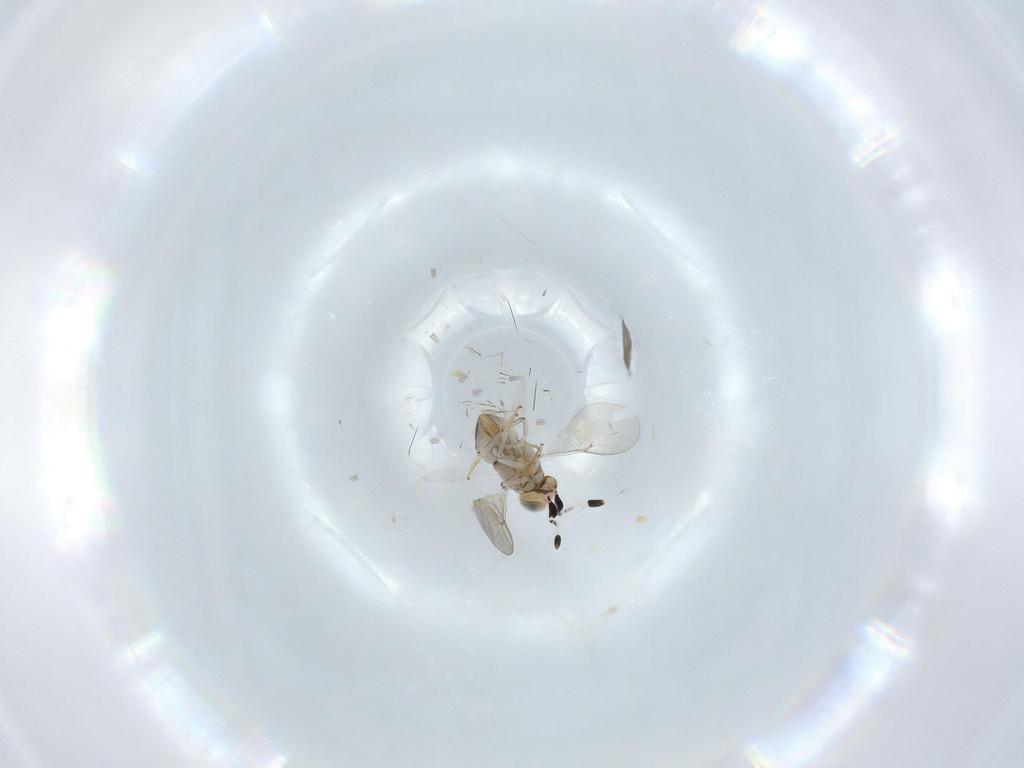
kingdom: Animalia
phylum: Arthropoda
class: Insecta
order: Hymenoptera
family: Encyrtidae
